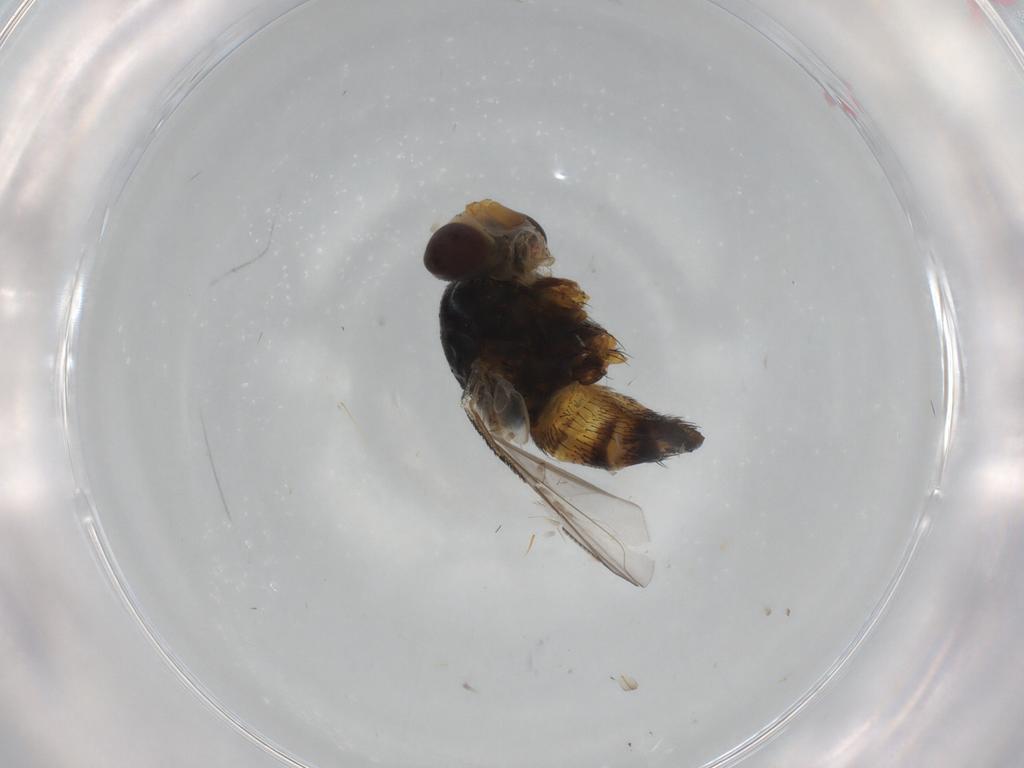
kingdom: Animalia
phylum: Arthropoda
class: Insecta
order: Diptera
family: Tachinidae
